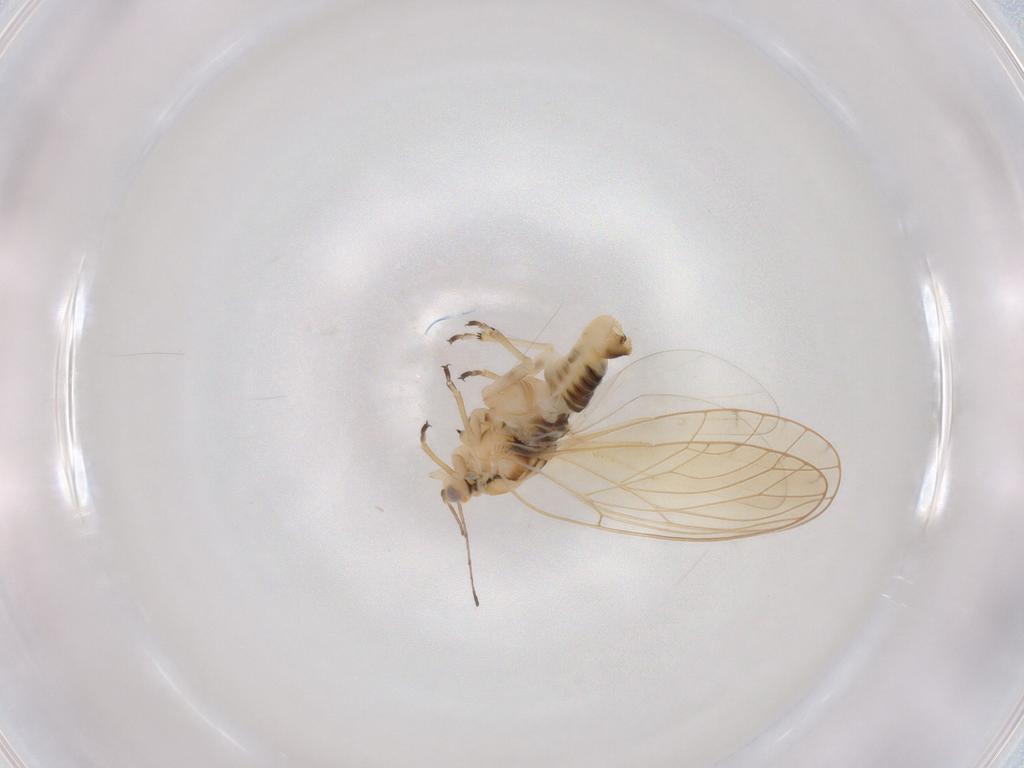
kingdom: Animalia
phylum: Arthropoda
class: Insecta
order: Hemiptera
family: Triozidae
